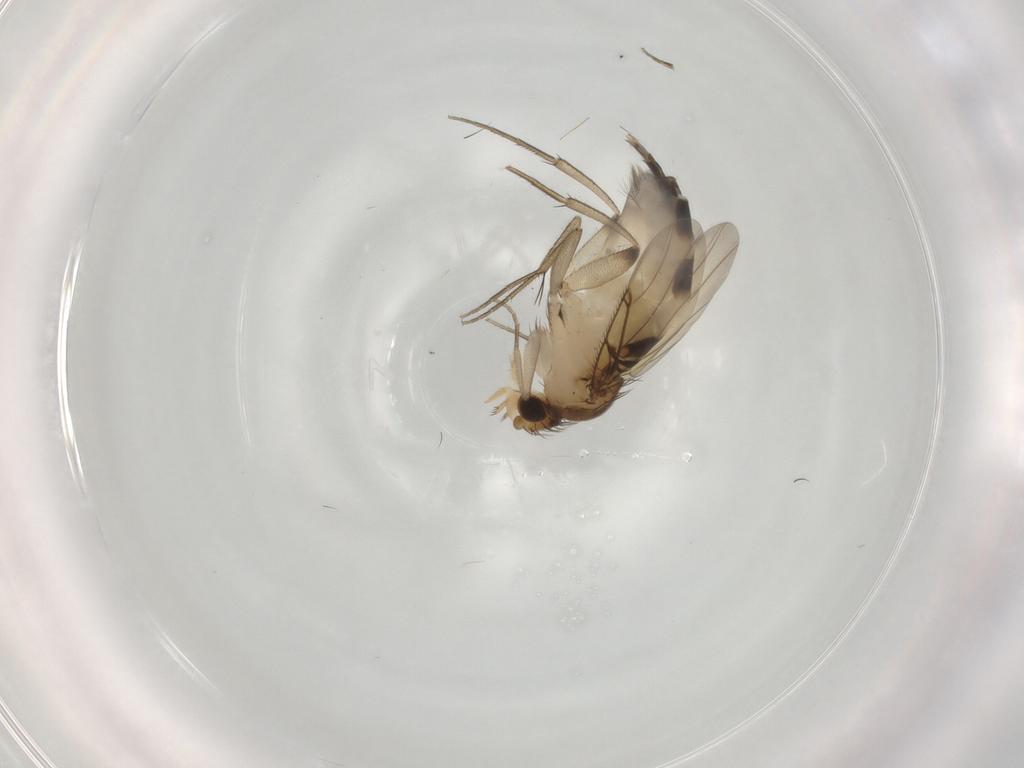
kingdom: Animalia
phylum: Arthropoda
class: Insecta
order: Diptera
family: Phoridae
